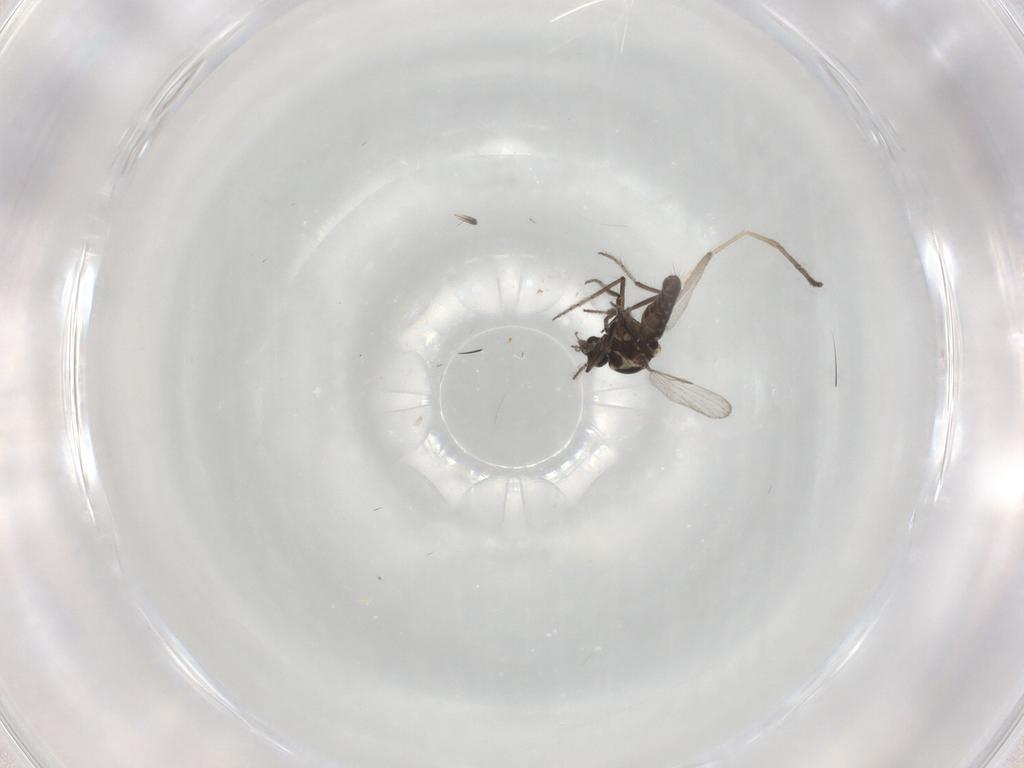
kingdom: Animalia
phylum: Arthropoda
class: Insecta
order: Diptera
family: Ceratopogonidae
